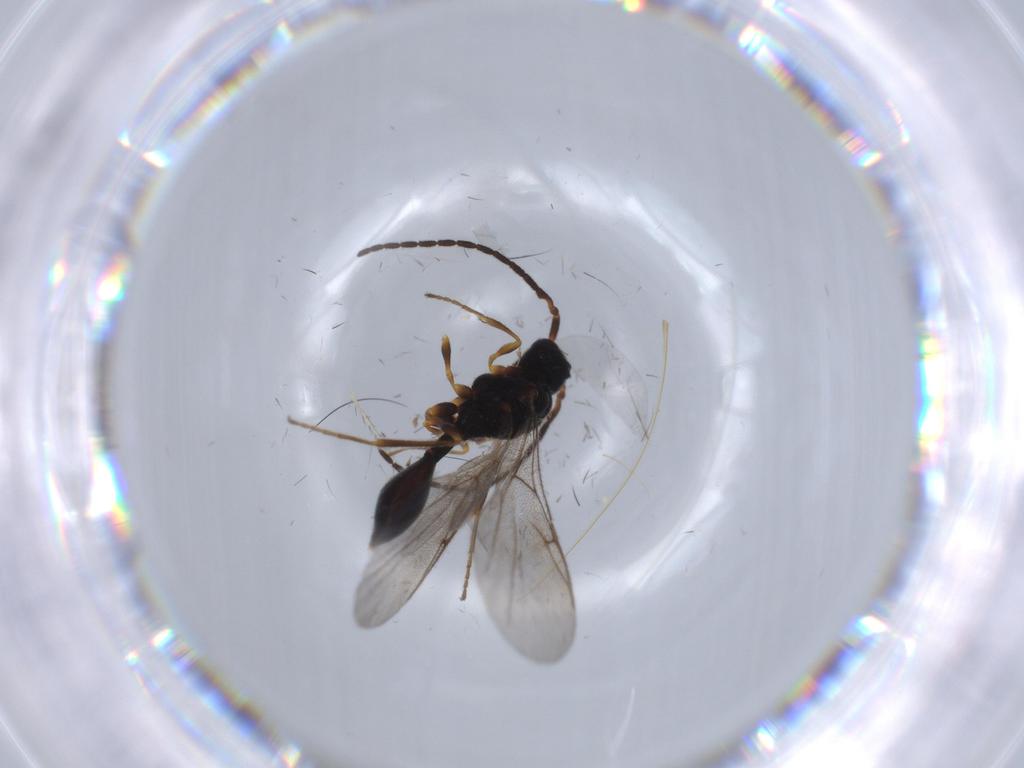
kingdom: Animalia
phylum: Arthropoda
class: Insecta
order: Hymenoptera
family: Diapriidae
